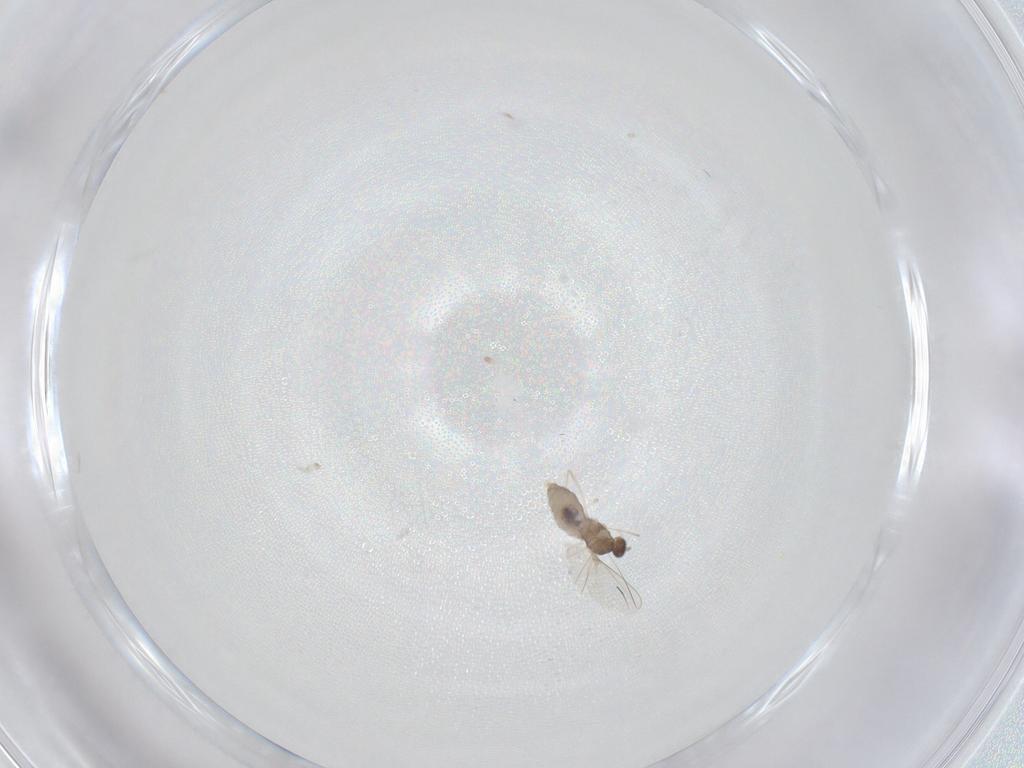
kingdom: Animalia
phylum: Arthropoda
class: Insecta
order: Diptera
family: Cecidomyiidae
